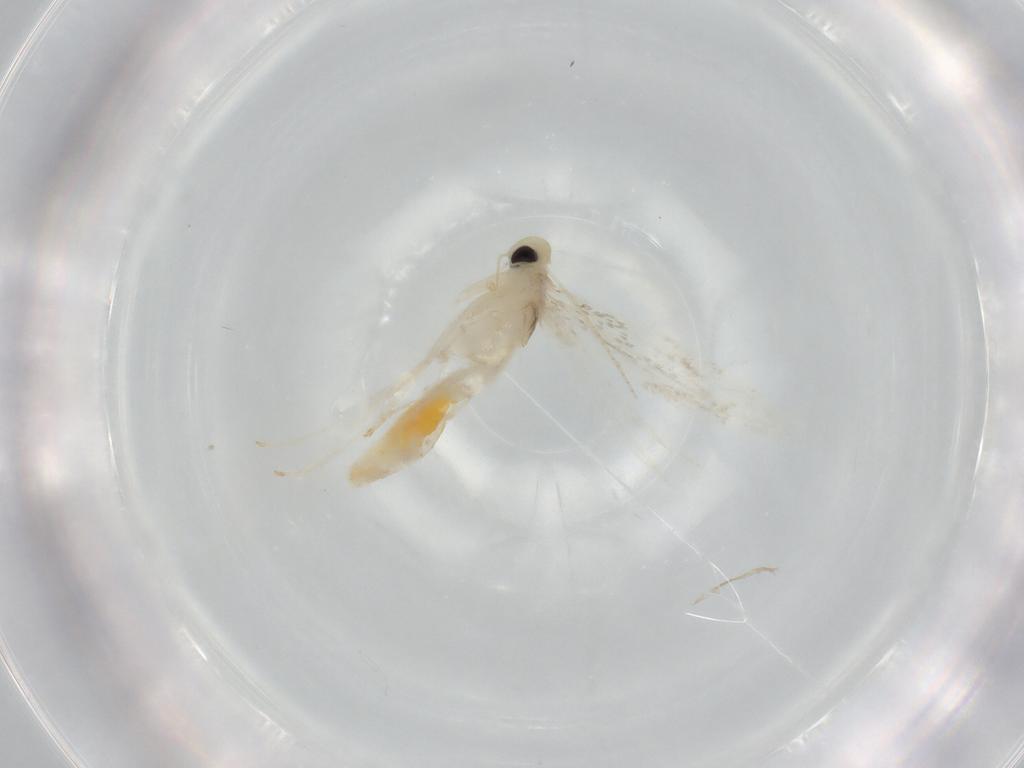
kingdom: Animalia
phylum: Arthropoda
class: Insecta
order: Lepidoptera
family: Gracillariidae
